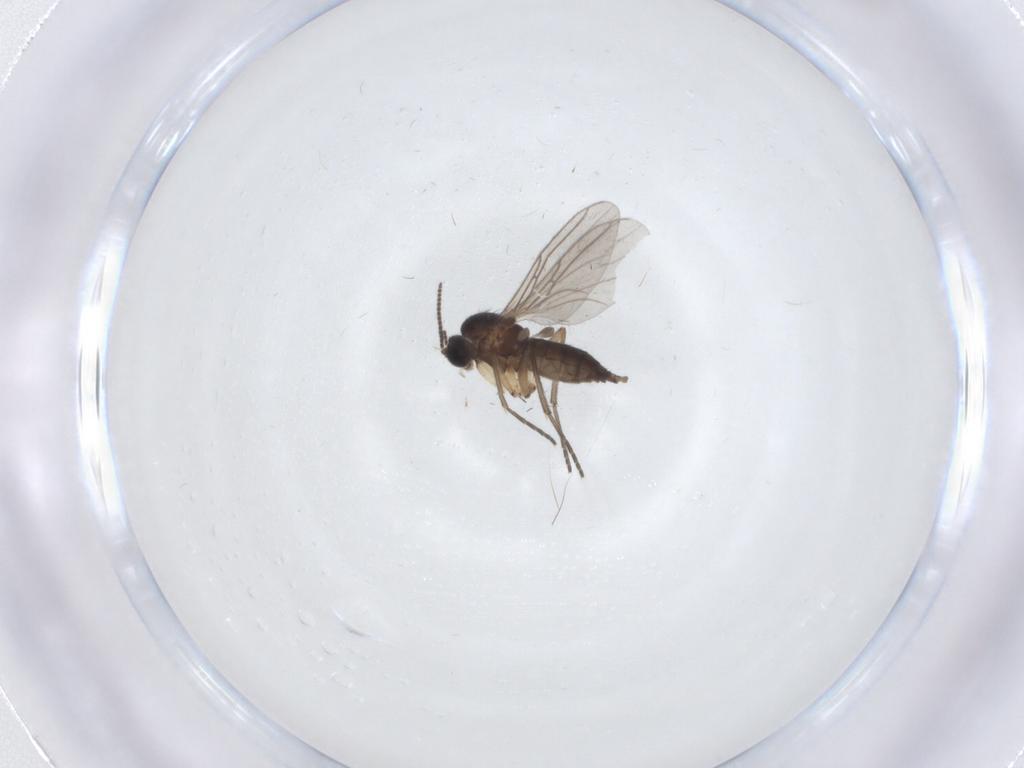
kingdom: Animalia
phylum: Arthropoda
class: Insecta
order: Diptera
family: Sciaridae
